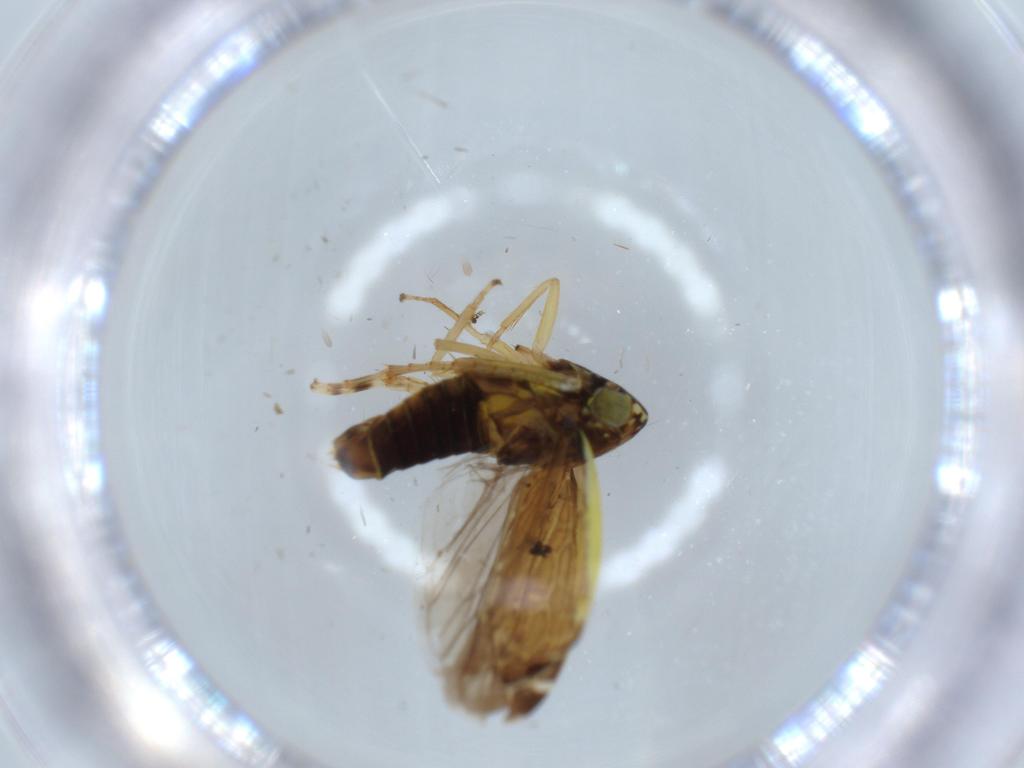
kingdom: Animalia
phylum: Arthropoda
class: Insecta
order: Hemiptera
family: Cicadellidae
